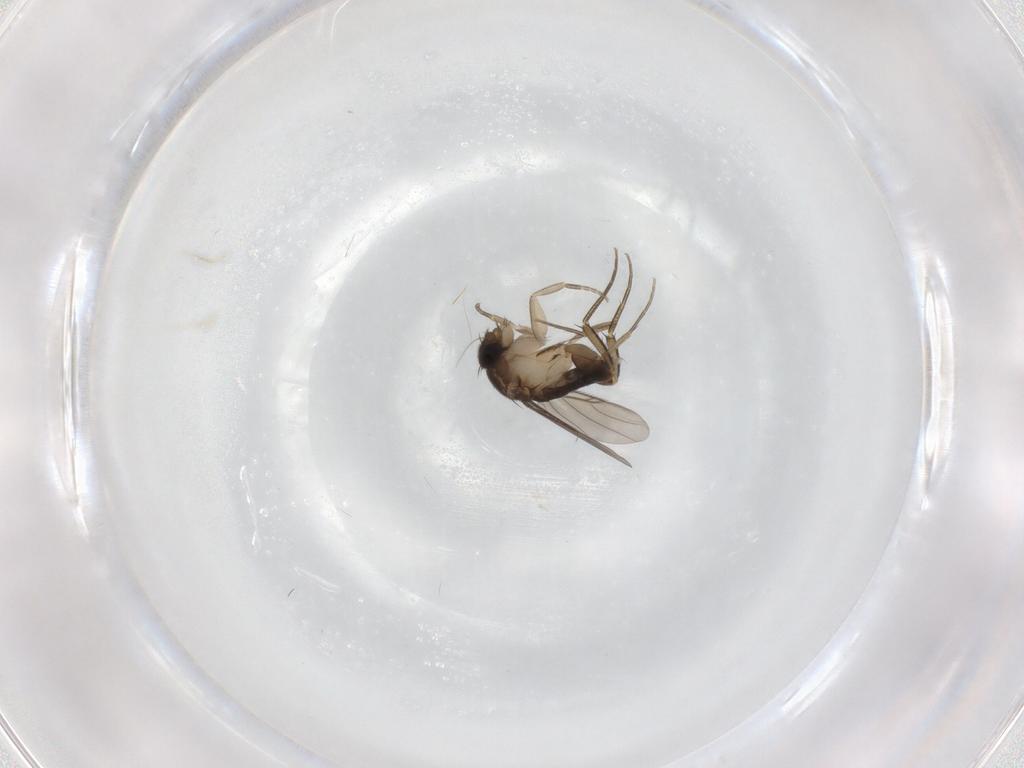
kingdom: Animalia
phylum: Arthropoda
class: Insecta
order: Diptera
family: Phoridae
